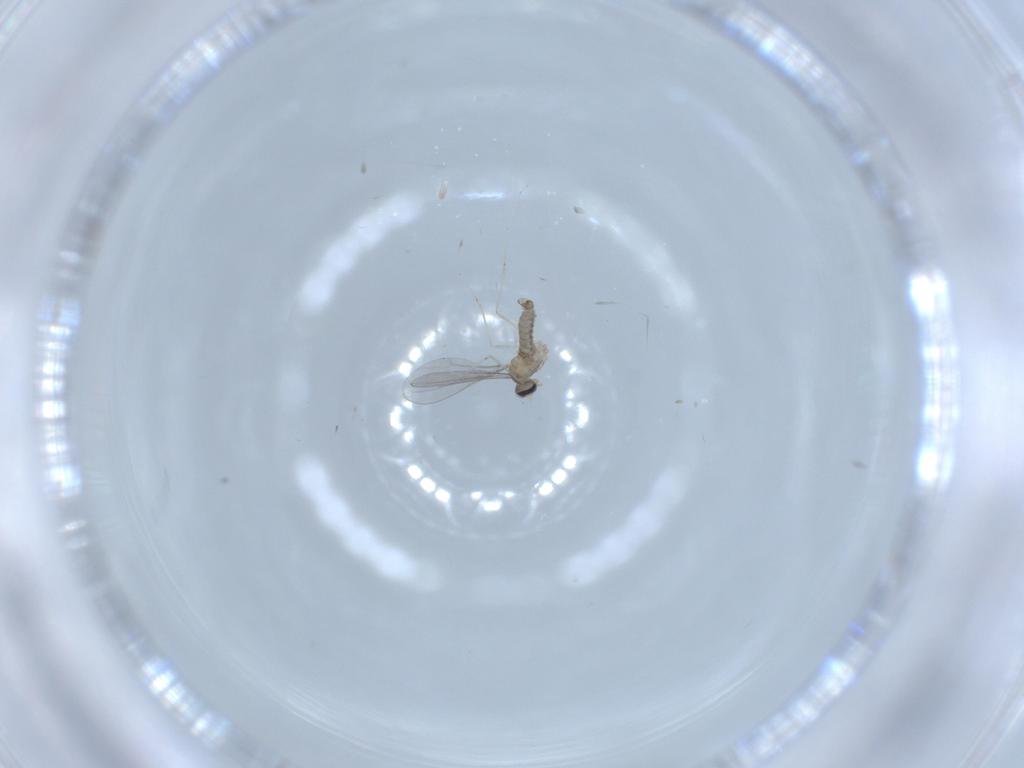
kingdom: Animalia
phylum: Arthropoda
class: Insecta
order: Diptera
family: Cecidomyiidae
